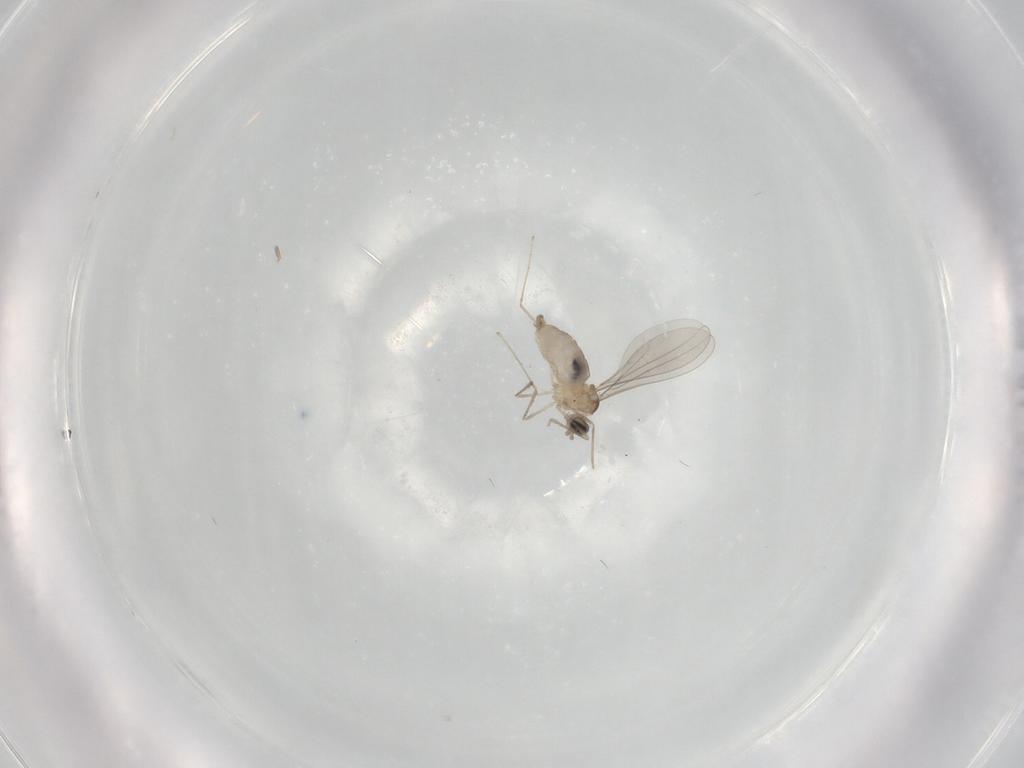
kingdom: Animalia
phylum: Arthropoda
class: Insecta
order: Diptera
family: Cecidomyiidae
